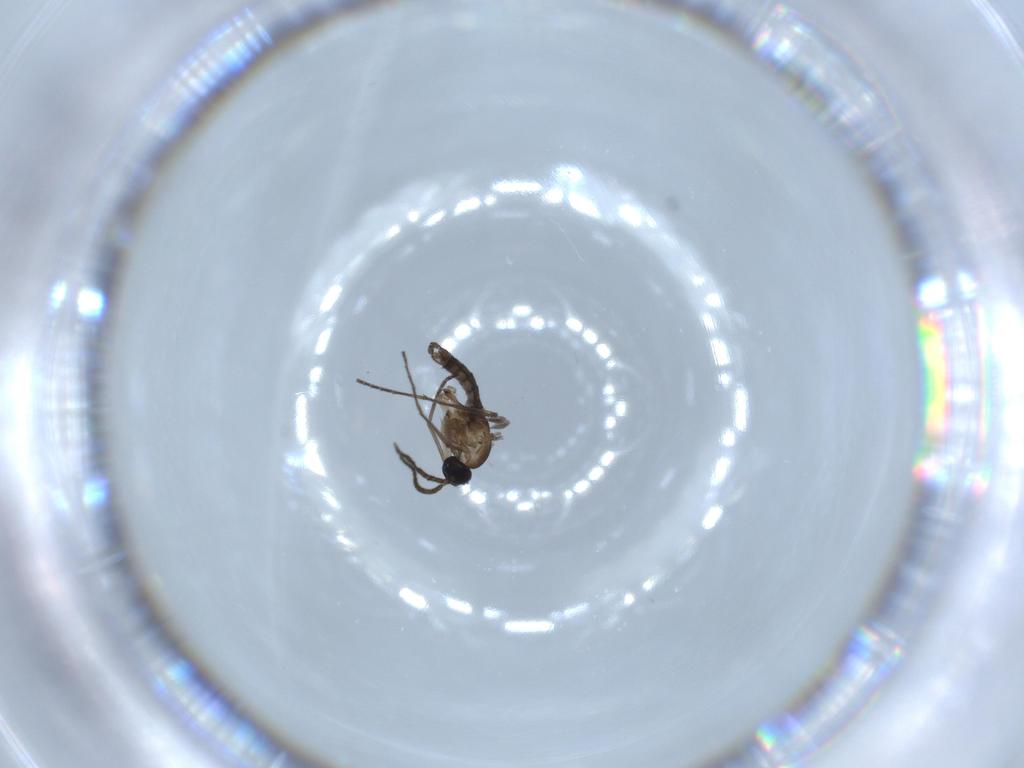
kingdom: Animalia
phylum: Arthropoda
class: Insecta
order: Diptera
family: Sciaridae
